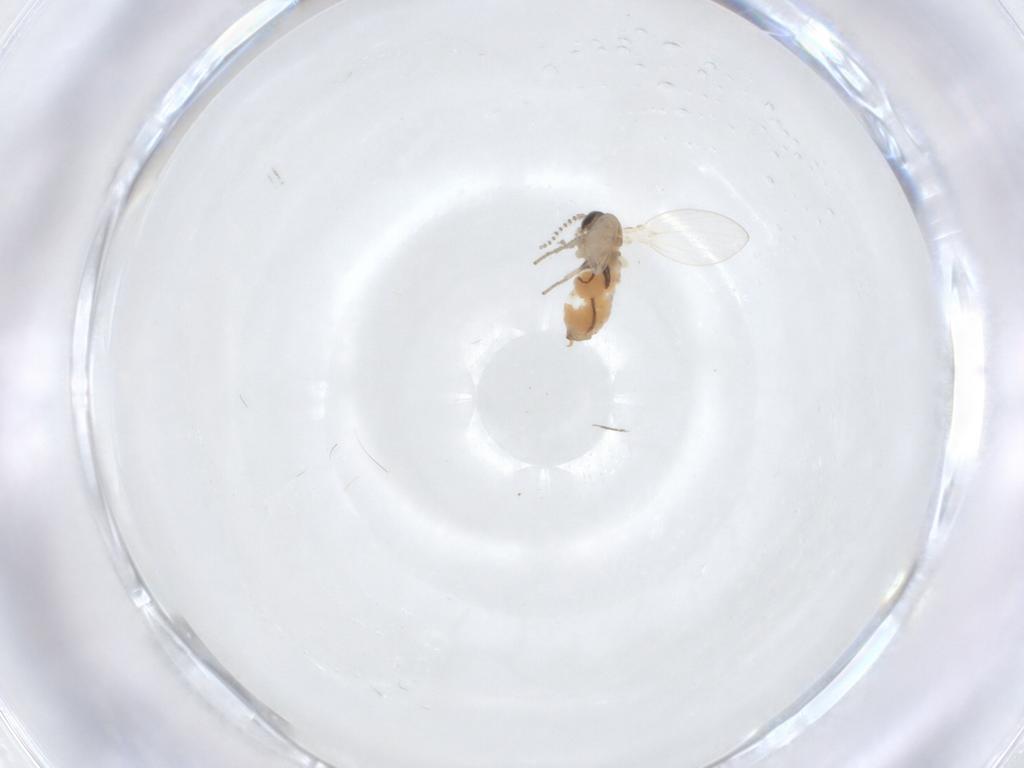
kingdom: Animalia
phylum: Arthropoda
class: Insecta
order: Diptera
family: Psychodidae
